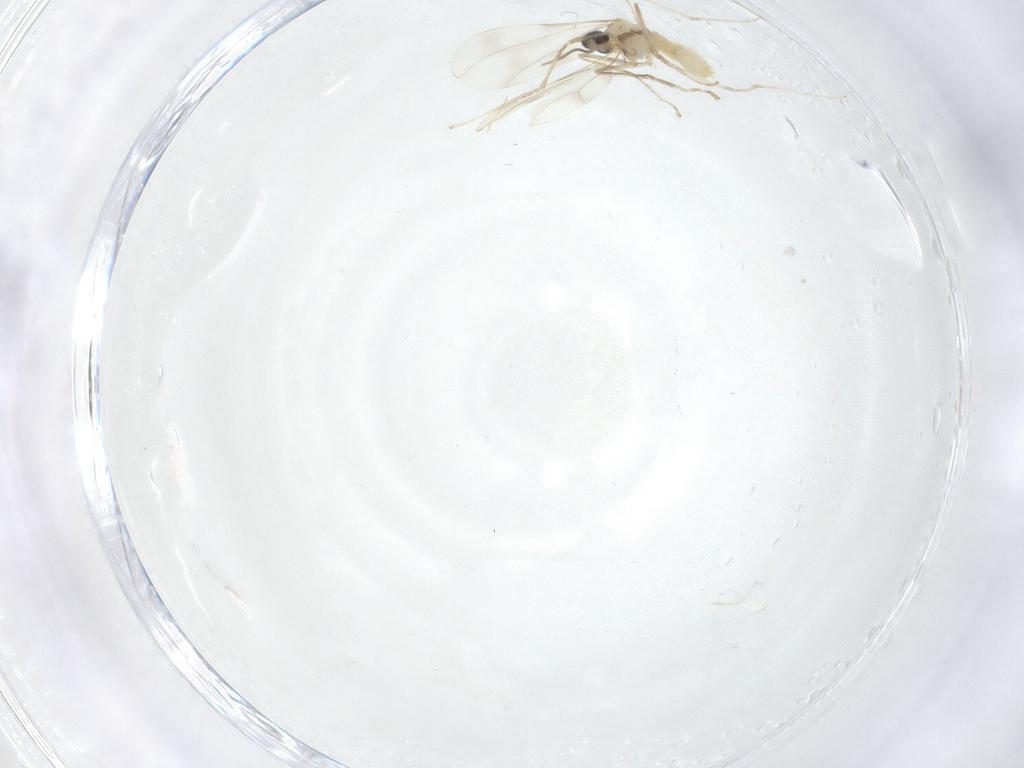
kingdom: Animalia
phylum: Arthropoda
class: Insecta
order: Diptera
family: Cecidomyiidae
